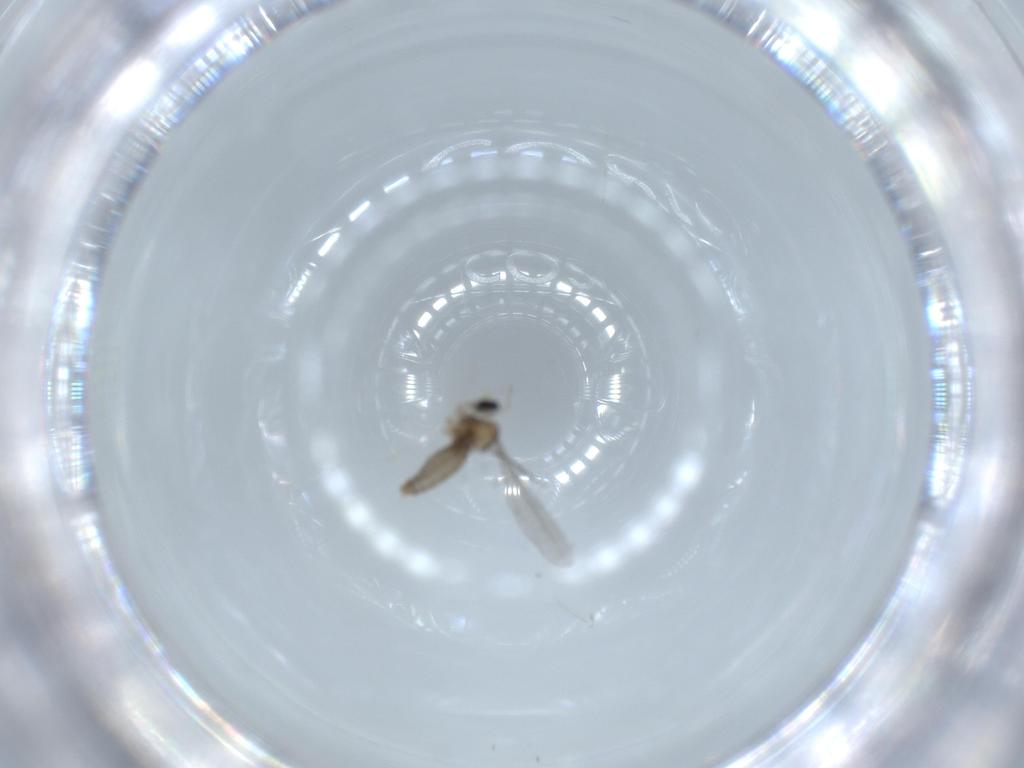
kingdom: Animalia
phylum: Arthropoda
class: Insecta
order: Diptera
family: Cecidomyiidae
